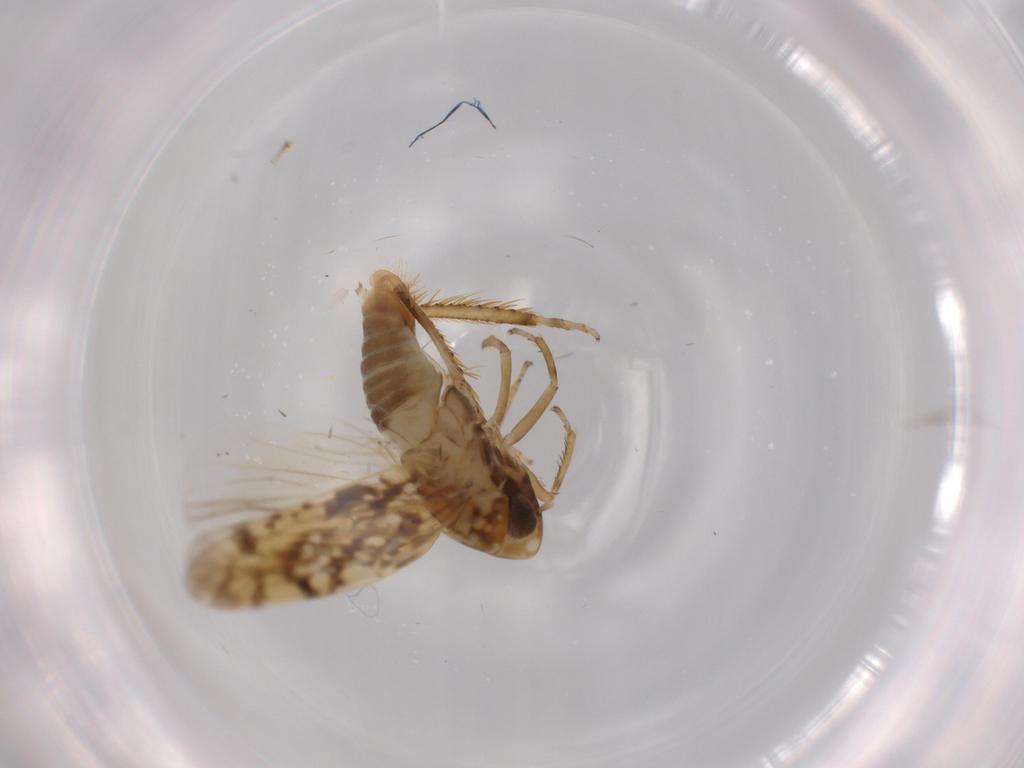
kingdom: Animalia
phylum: Arthropoda
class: Insecta
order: Hemiptera
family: Cicadellidae
